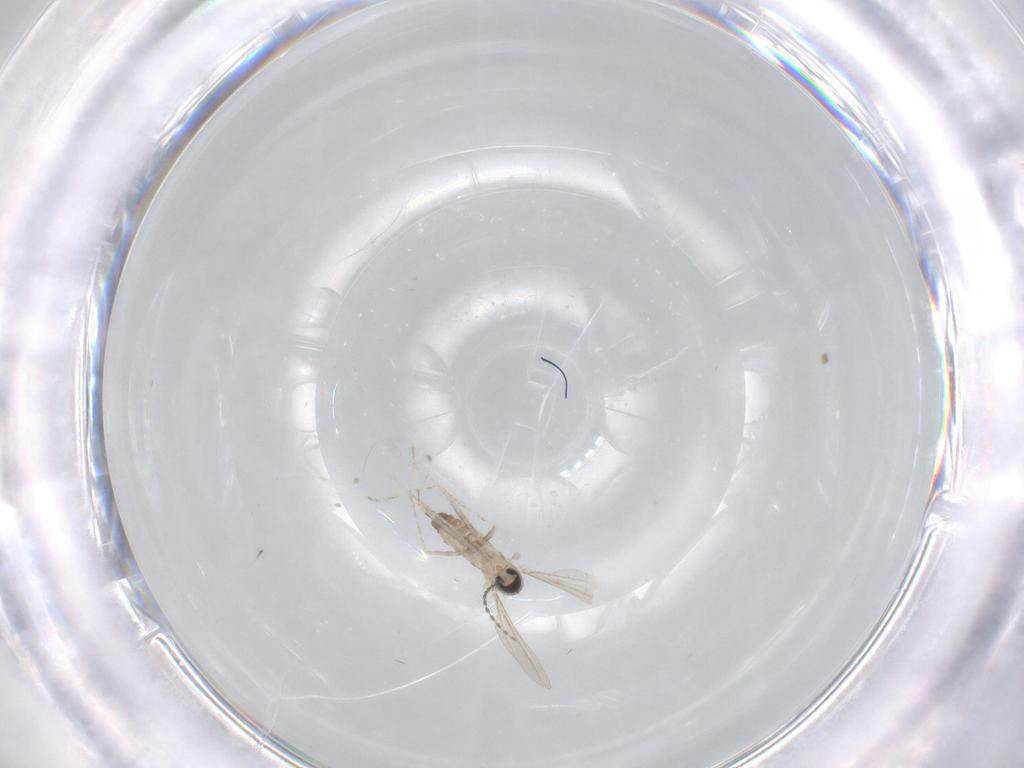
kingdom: Animalia
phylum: Arthropoda
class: Insecta
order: Diptera
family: Cecidomyiidae
